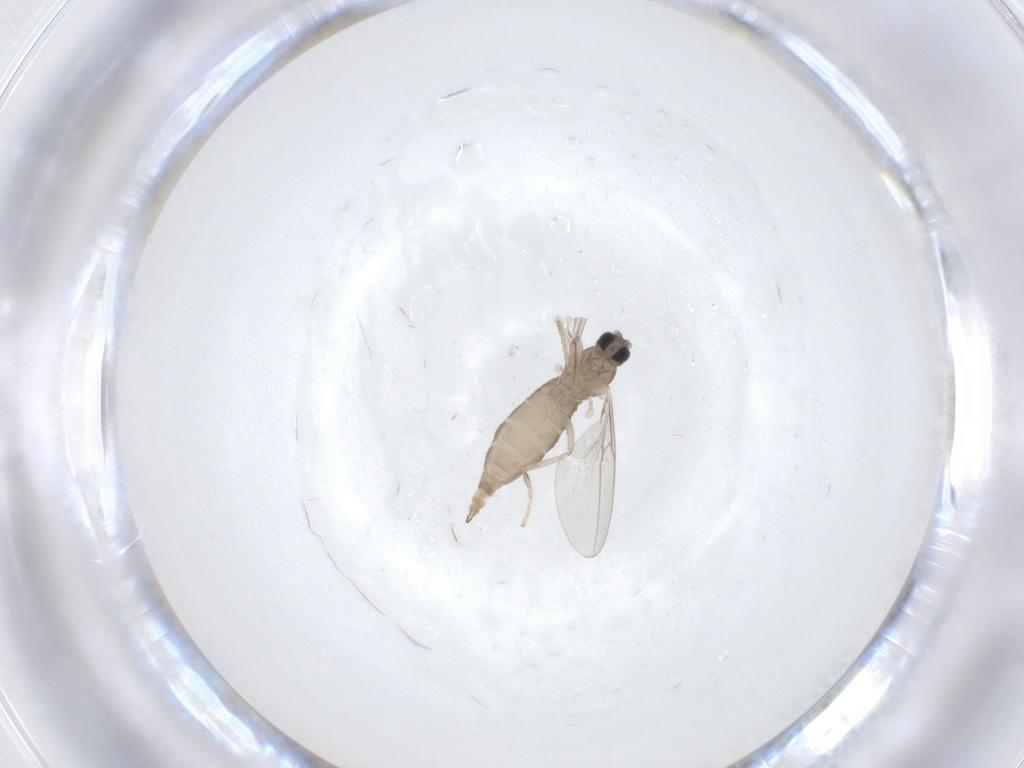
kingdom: Animalia
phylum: Arthropoda
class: Insecta
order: Diptera
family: Cecidomyiidae
